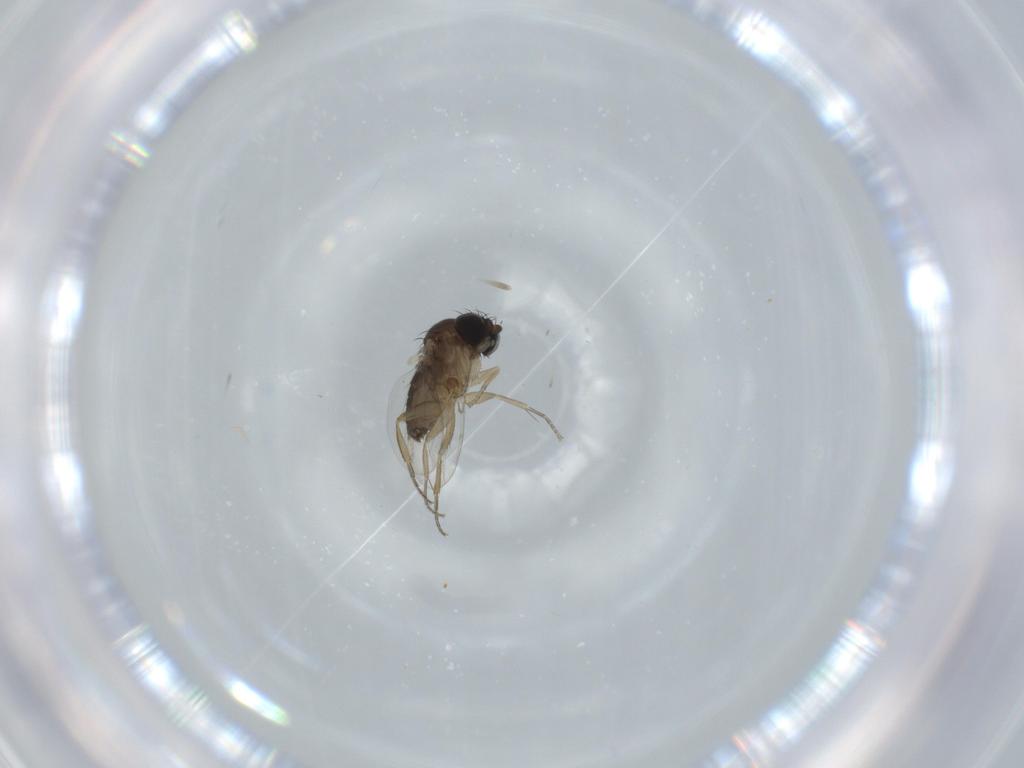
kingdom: Animalia
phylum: Arthropoda
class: Insecta
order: Diptera
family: Phoridae
